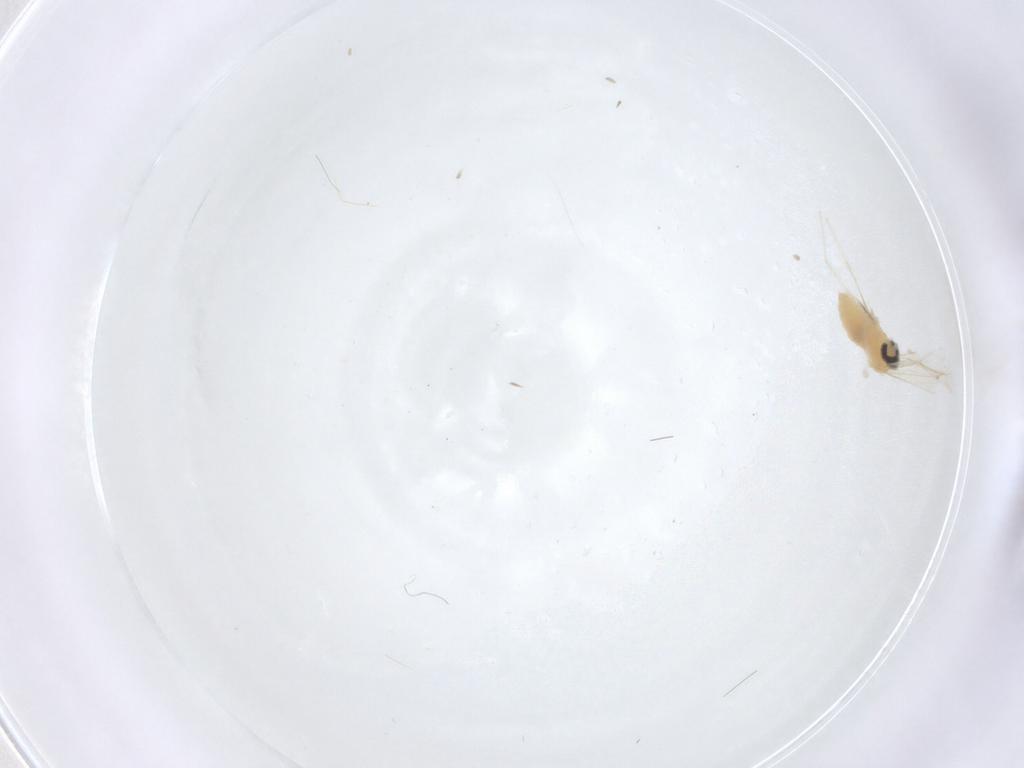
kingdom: Animalia
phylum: Arthropoda
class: Insecta
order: Diptera
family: Cecidomyiidae
